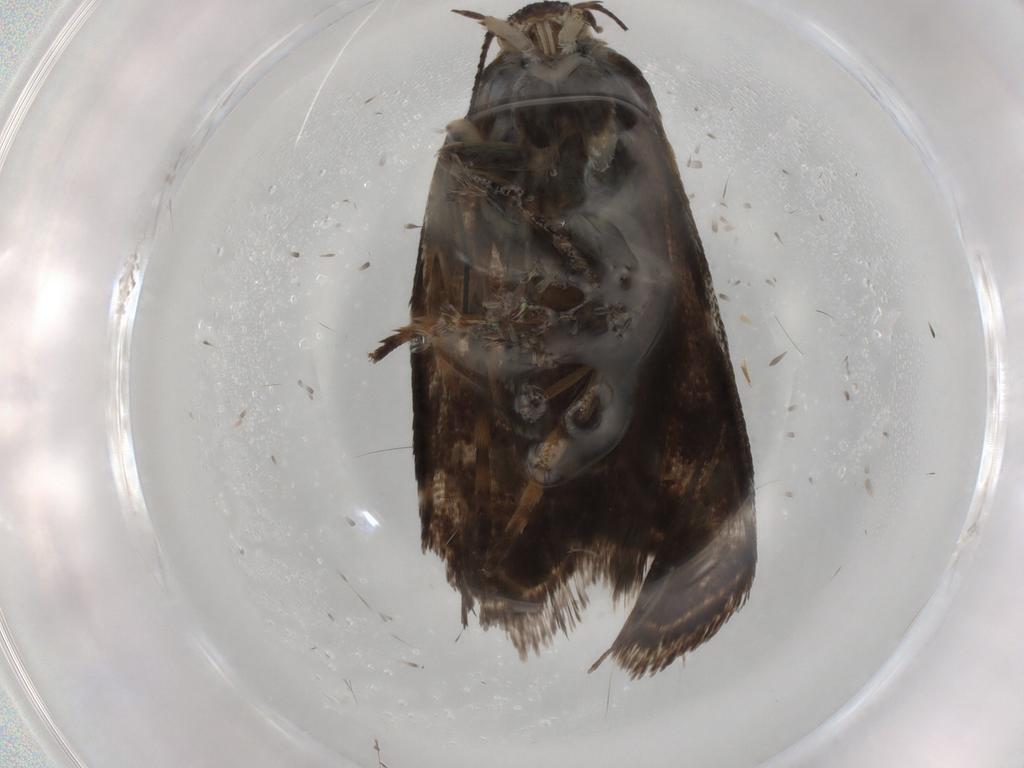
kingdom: Animalia
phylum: Arthropoda
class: Insecta
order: Lepidoptera
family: Choreutidae
